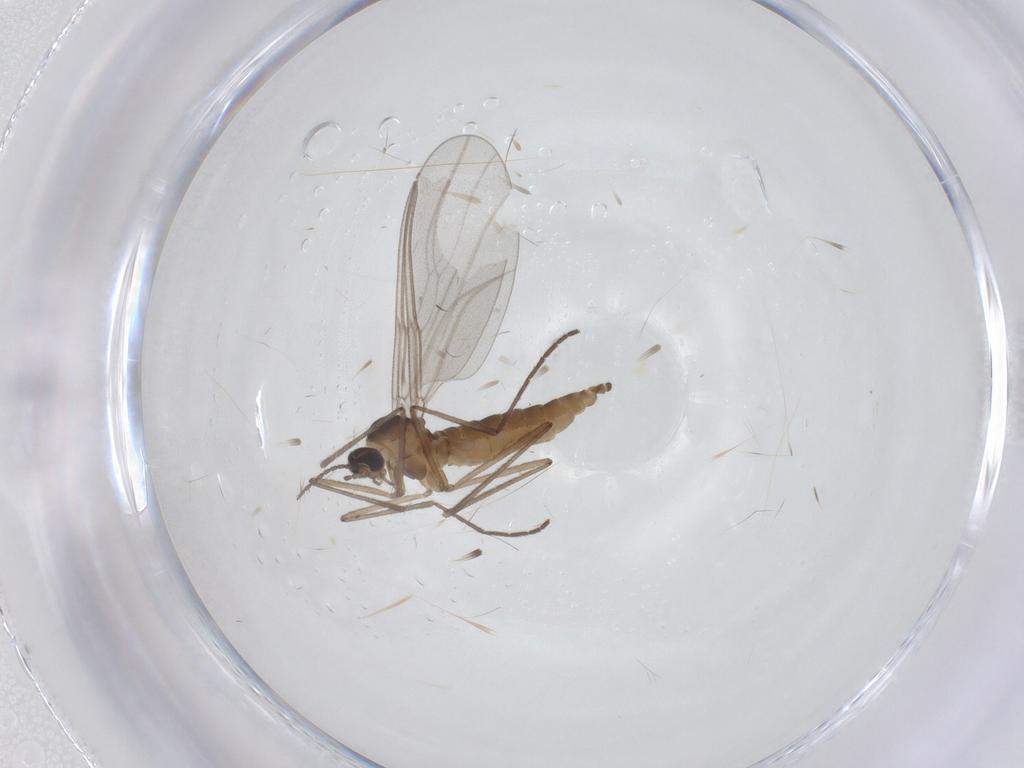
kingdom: Animalia
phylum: Arthropoda
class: Insecta
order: Diptera
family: Cecidomyiidae
